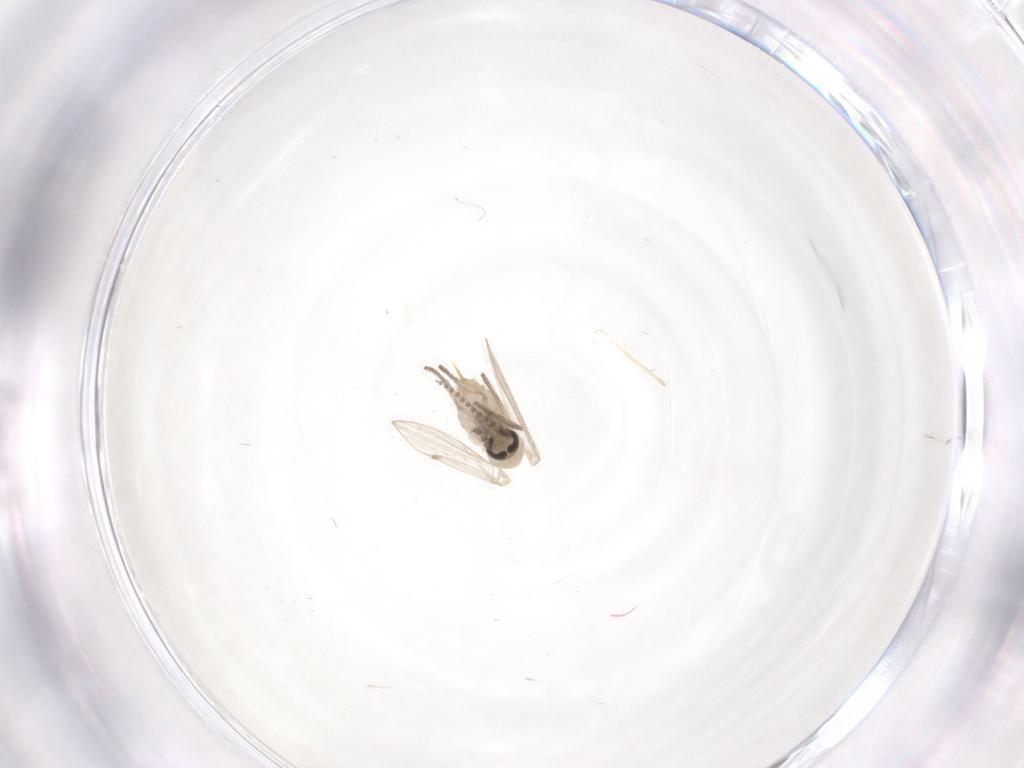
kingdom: Animalia
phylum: Arthropoda
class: Insecta
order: Diptera
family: Psychodidae
